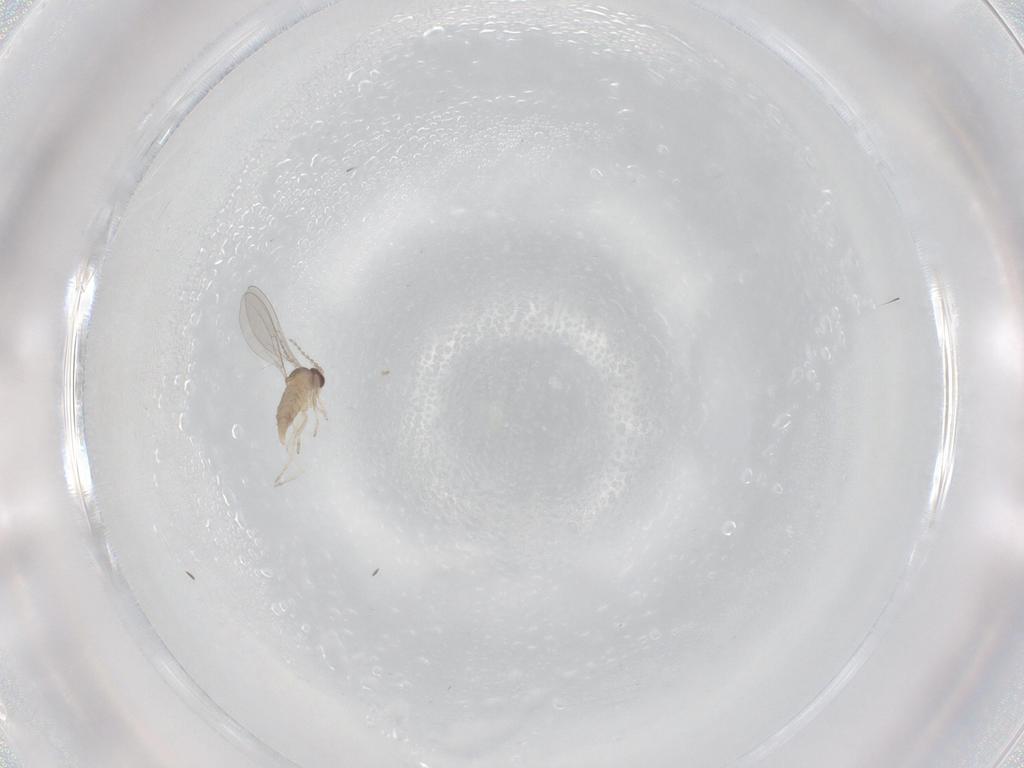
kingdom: Animalia
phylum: Arthropoda
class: Insecta
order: Diptera
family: Cecidomyiidae
